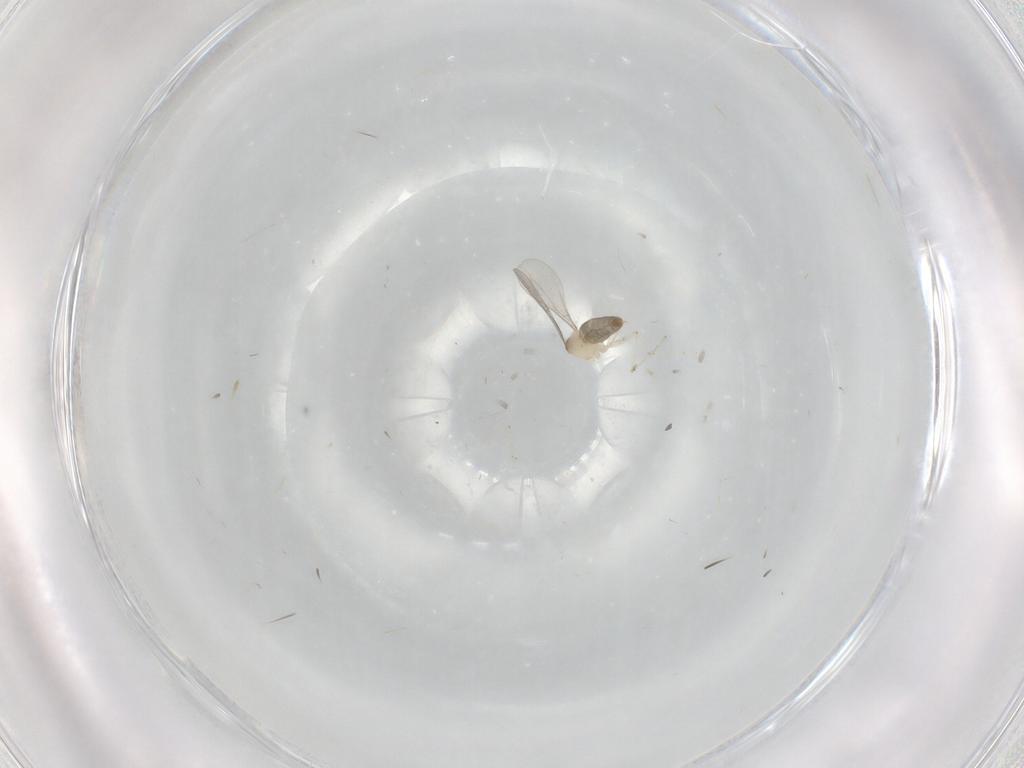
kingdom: Animalia
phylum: Arthropoda
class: Insecta
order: Diptera
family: Cecidomyiidae
